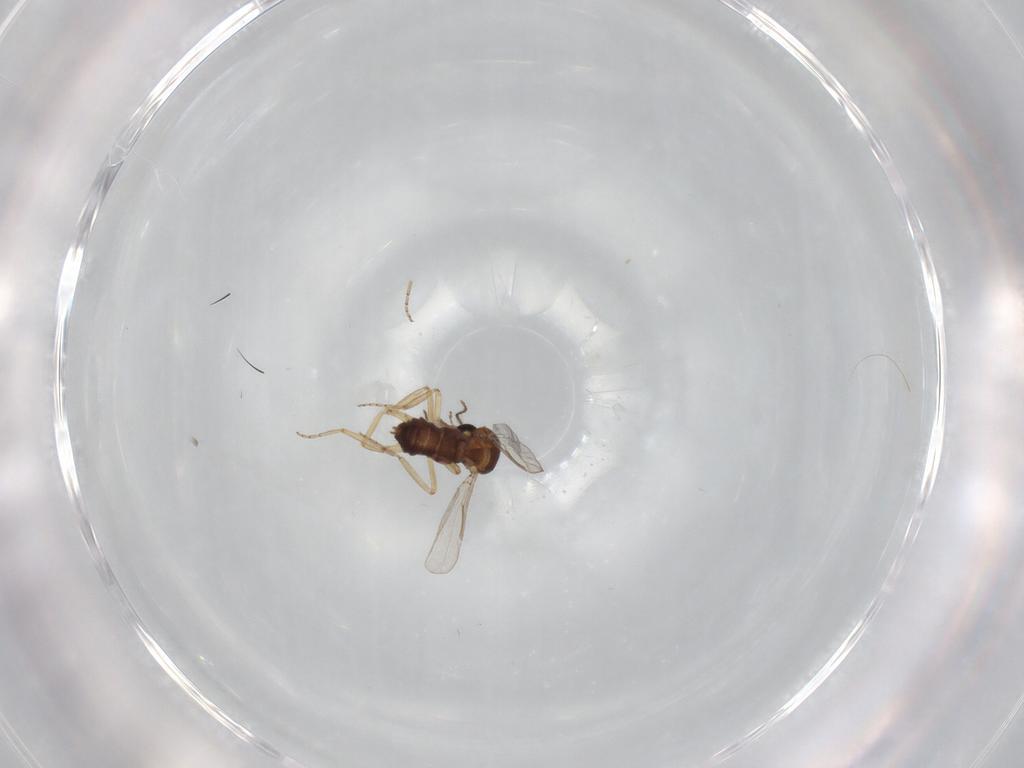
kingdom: Animalia
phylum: Arthropoda
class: Insecta
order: Diptera
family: Ceratopogonidae
